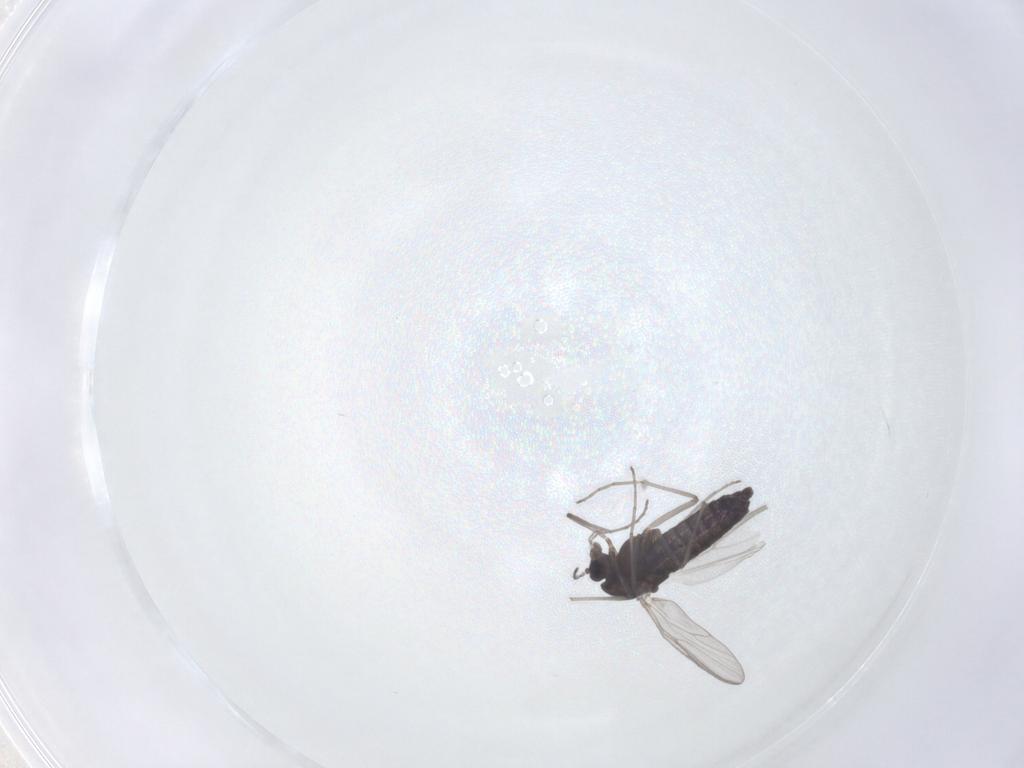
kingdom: Animalia
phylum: Arthropoda
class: Insecta
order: Diptera
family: Chironomidae
